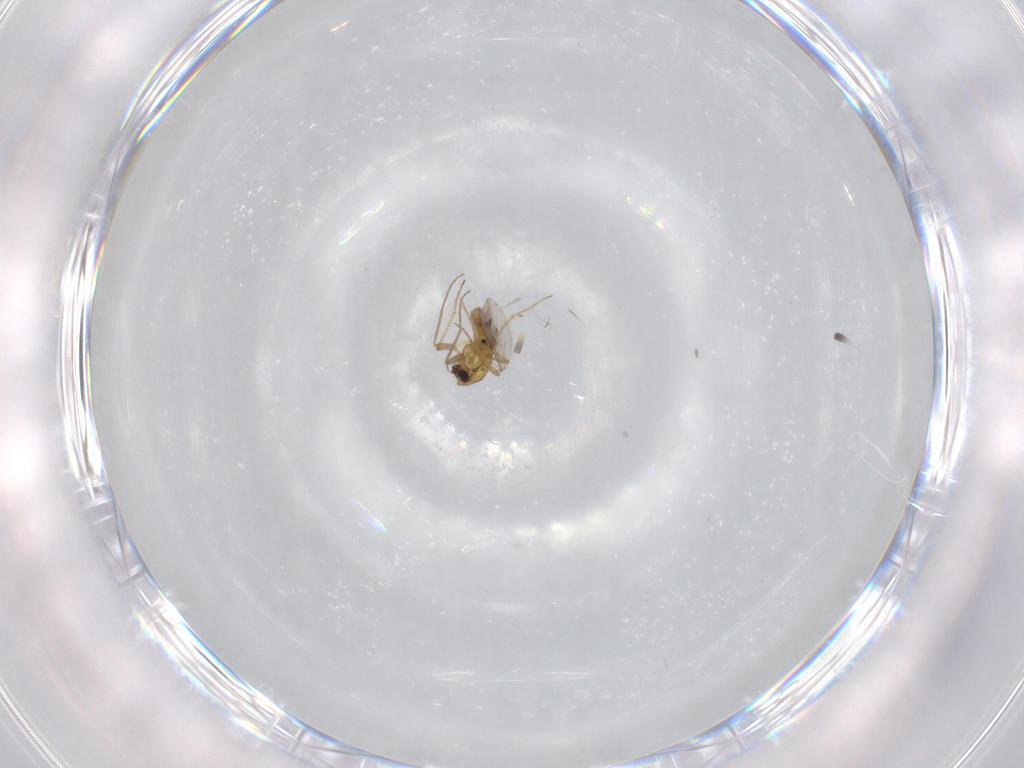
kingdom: Animalia
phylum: Arthropoda
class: Insecta
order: Diptera
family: Chironomidae
